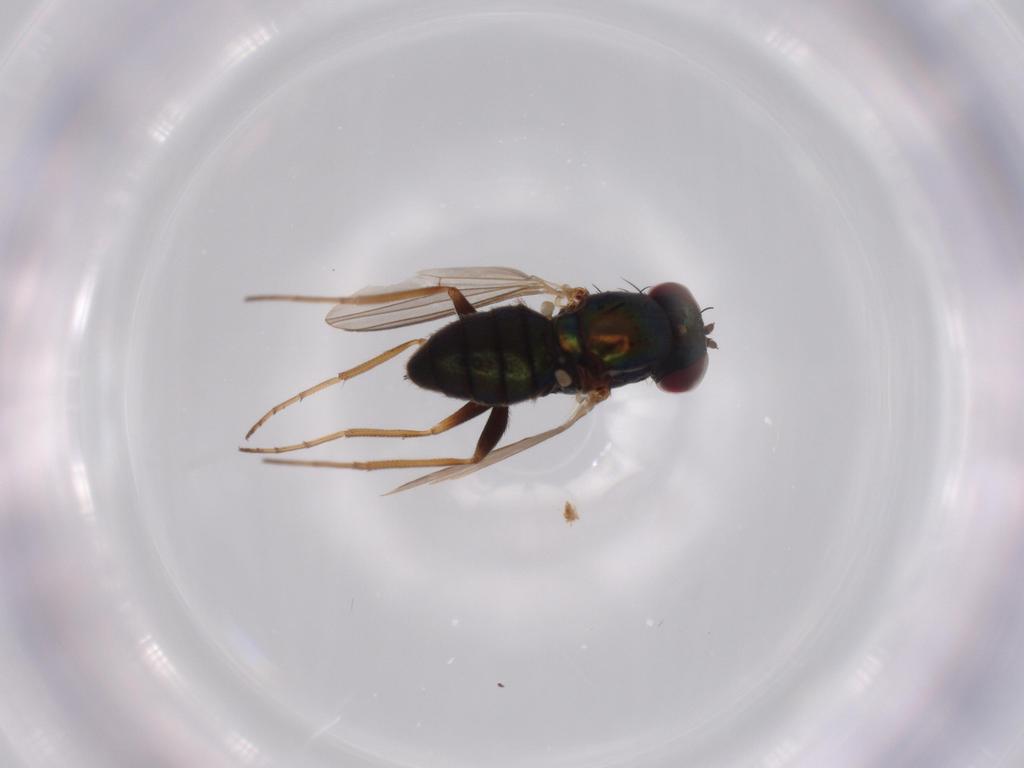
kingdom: Animalia
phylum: Arthropoda
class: Insecta
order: Diptera
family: Dolichopodidae
